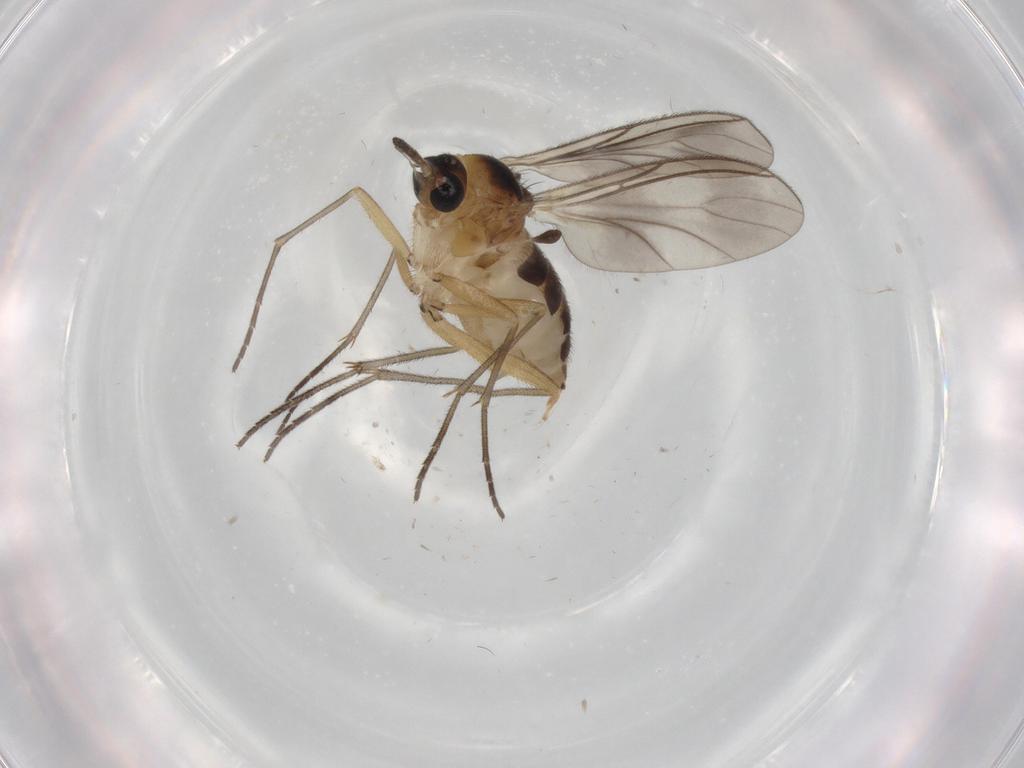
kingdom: Animalia
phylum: Arthropoda
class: Insecta
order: Diptera
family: Sciaridae
